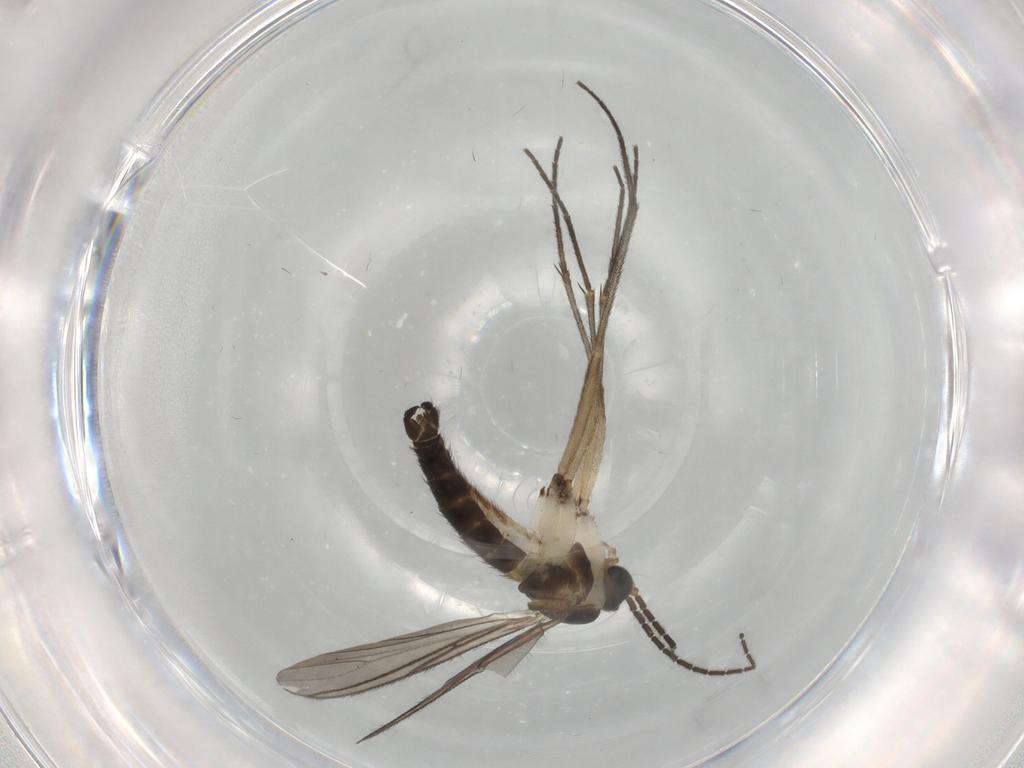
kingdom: Animalia
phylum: Arthropoda
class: Insecta
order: Diptera
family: Sciaridae
